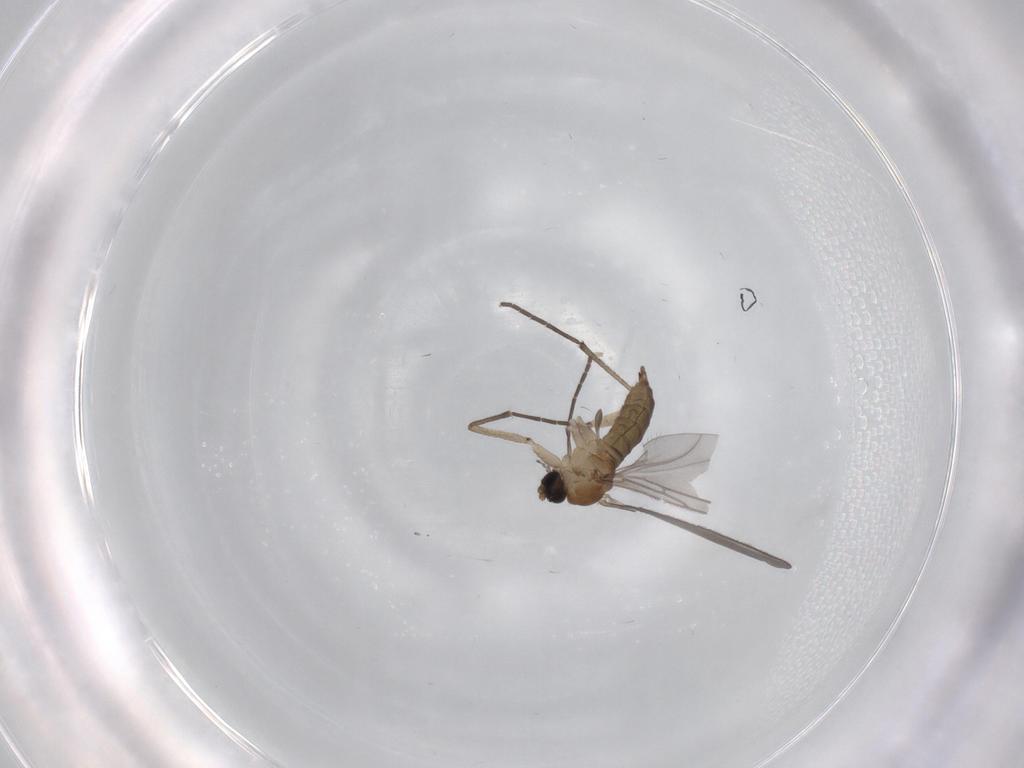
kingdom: Animalia
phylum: Arthropoda
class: Insecta
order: Diptera
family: Sciaridae
